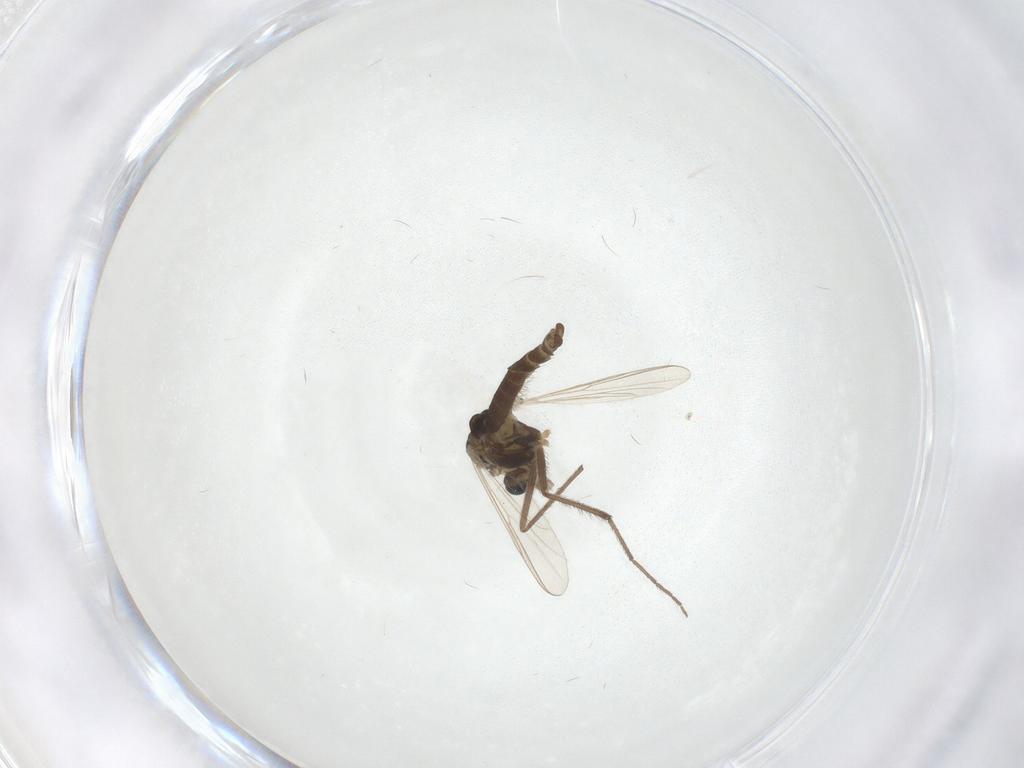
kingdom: Animalia
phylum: Arthropoda
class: Insecta
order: Diptera
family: Chironomidae
